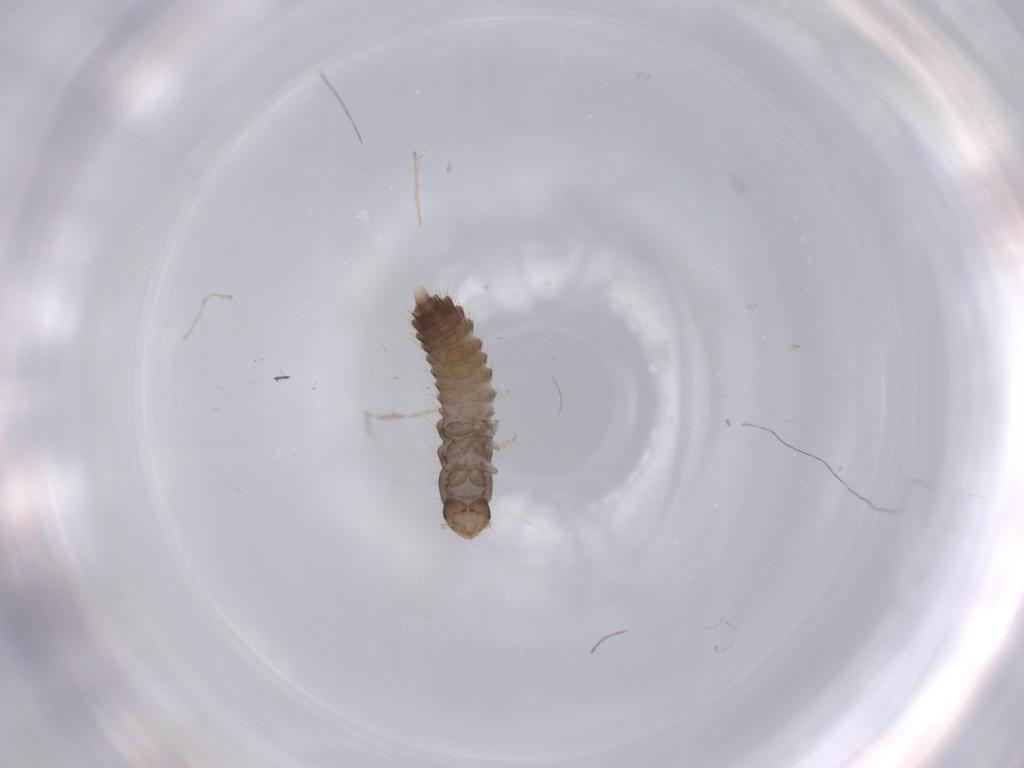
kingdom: Animalia
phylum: Arthropoda
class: Insecta
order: Coleoptera
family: Staphylinidae
